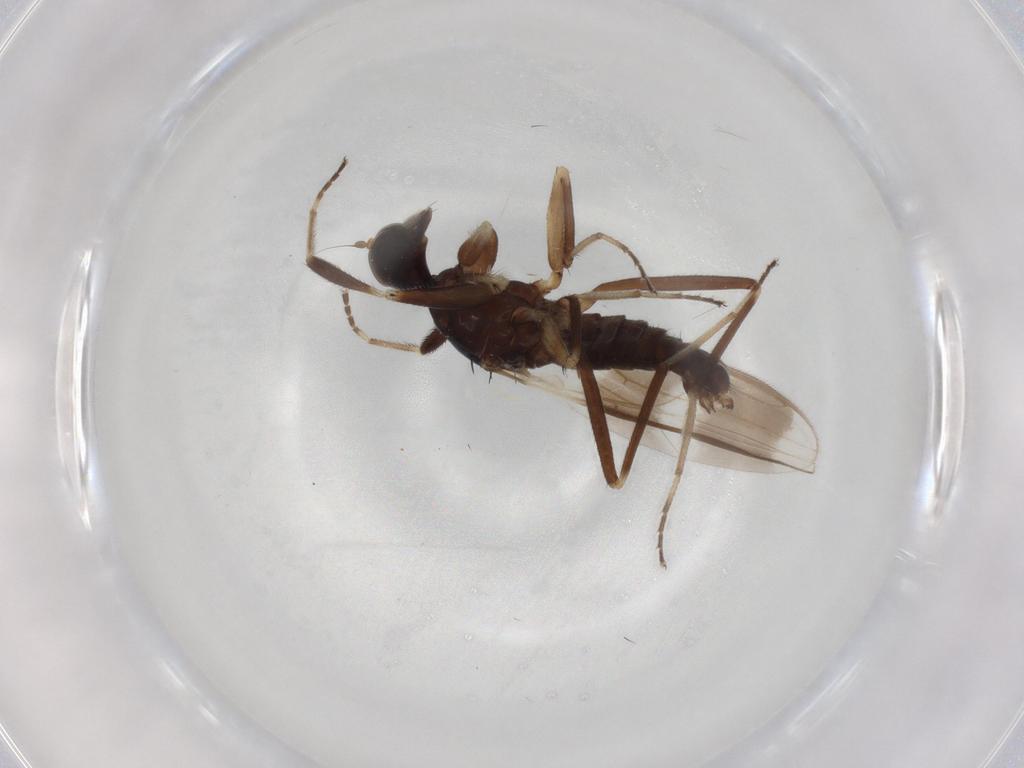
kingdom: Animalia
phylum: Arthropoda
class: Insecta
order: Diptera
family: Hybotidae
